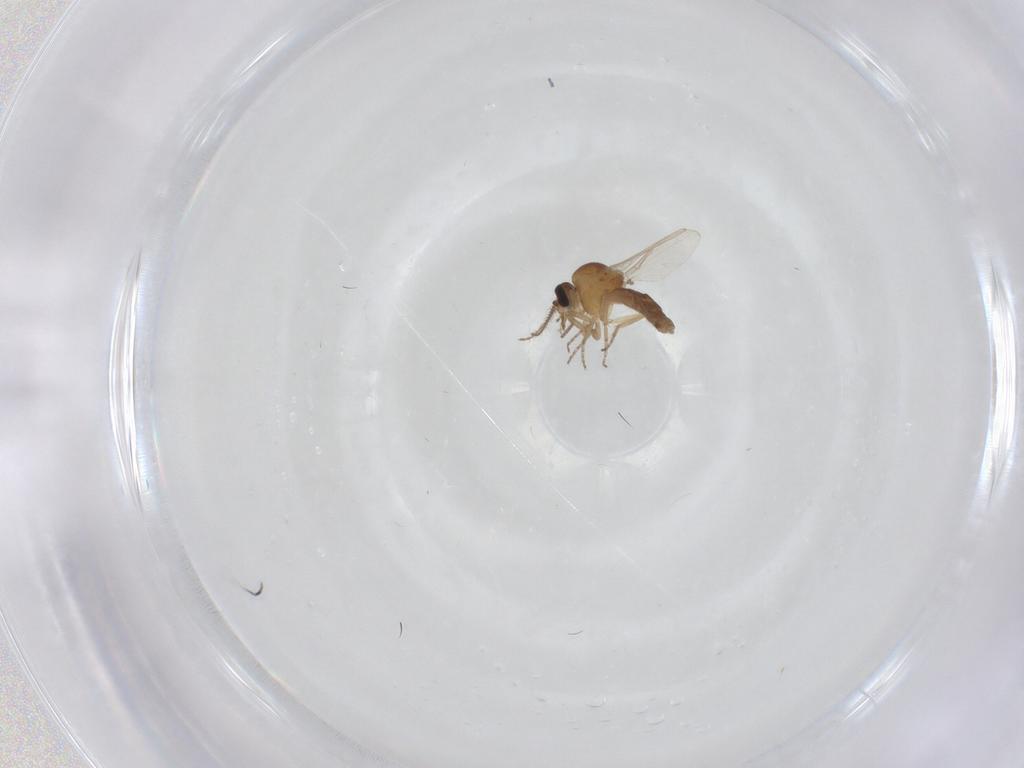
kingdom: Animalia
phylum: Arthropoda
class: Insecta
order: Diptera
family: Ceratopogonidae
